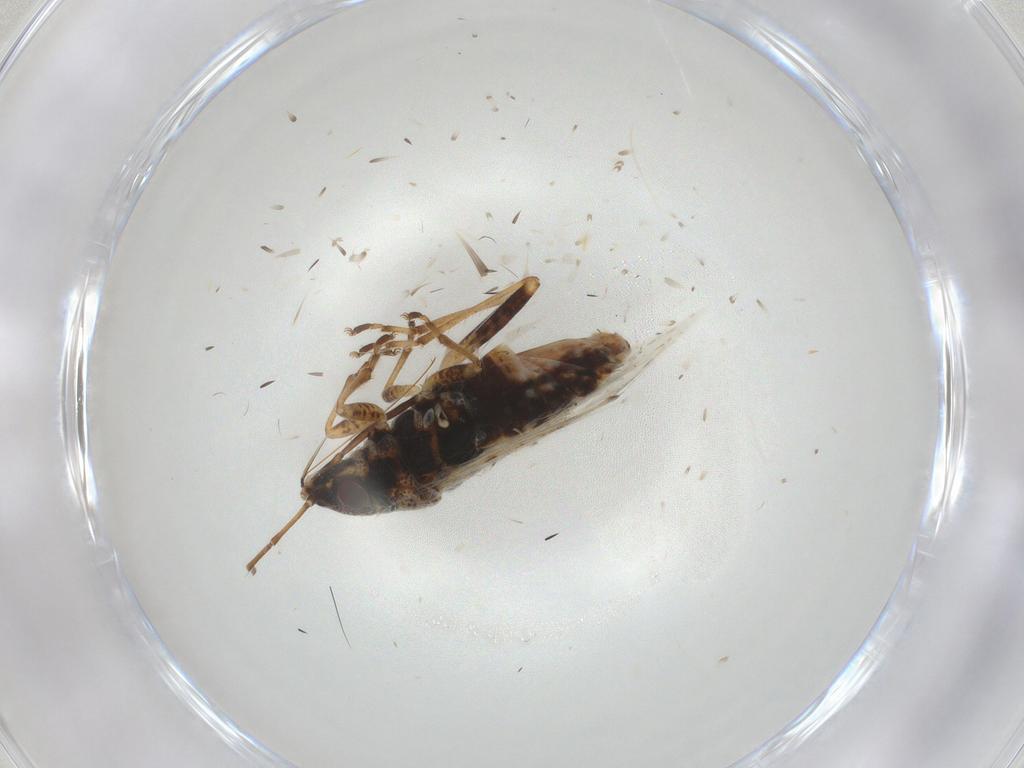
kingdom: Animalia
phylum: Arthropoda
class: Insecta
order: Hemiptera
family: Lygaeidae
